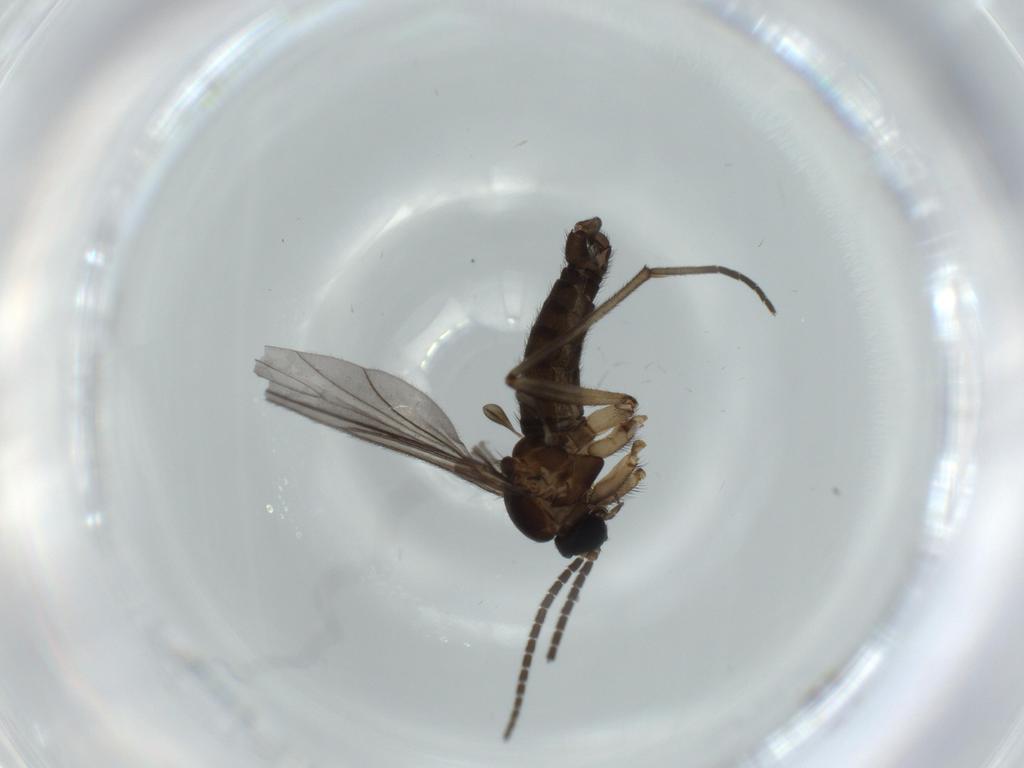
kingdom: Animalia
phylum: Arthropoda
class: Insecta
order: Diptera
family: Sciaridae
